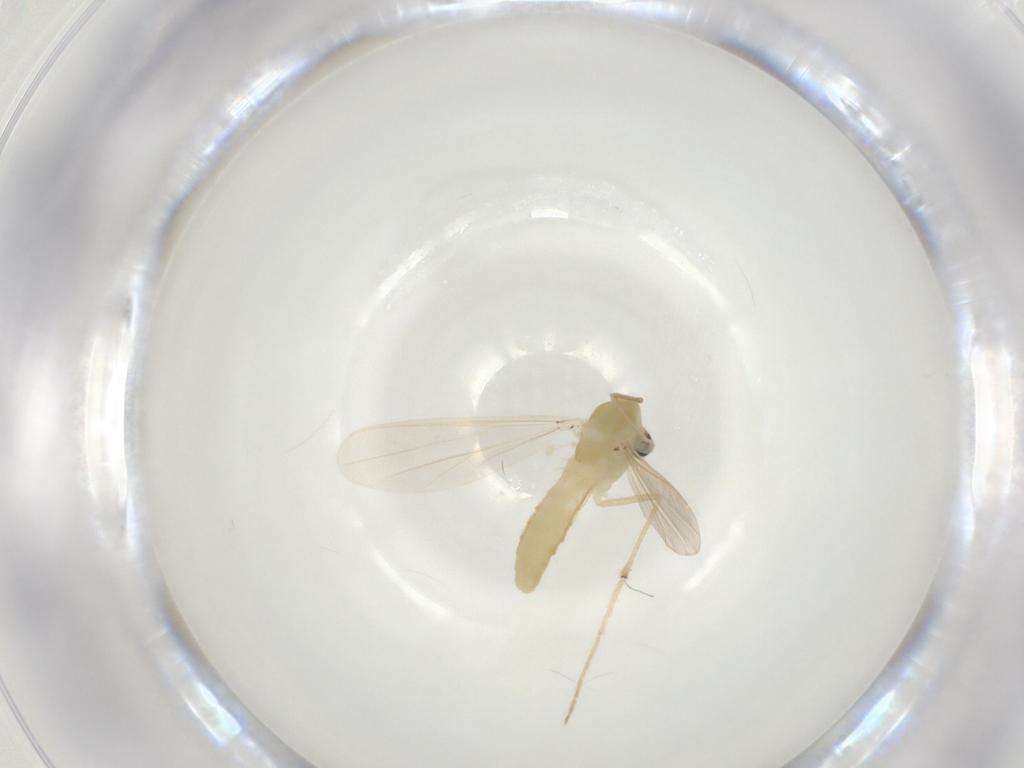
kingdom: Animalia
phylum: Arthropoda
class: Insecta
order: Diptera
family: Chironomidae
